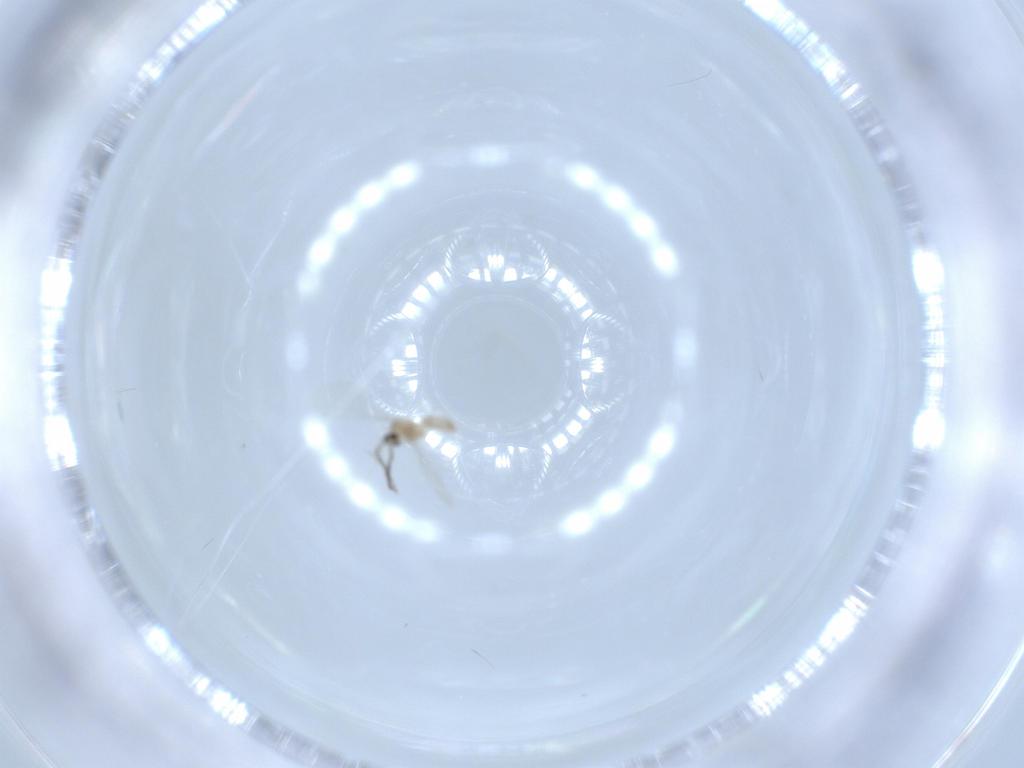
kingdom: Animalia
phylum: Arthropoda
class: Insecta
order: Diptera
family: Cecidomyiidae
